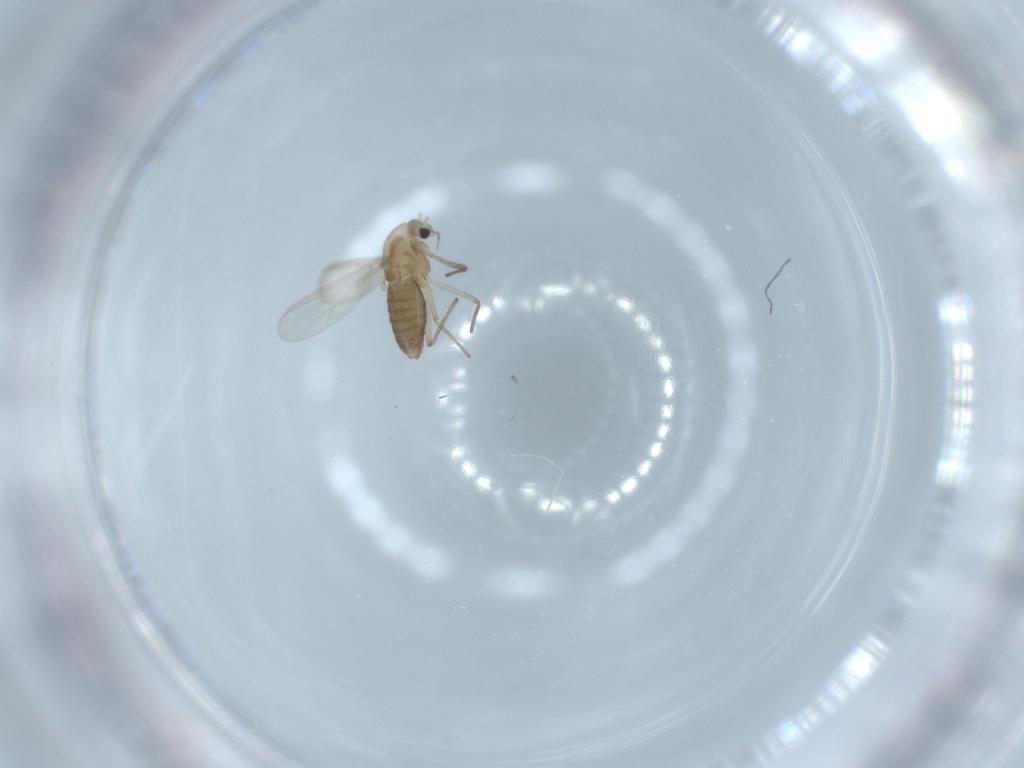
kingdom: Animalia
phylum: Arthropoda
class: Insecta
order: Diptera
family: Chironomidae
